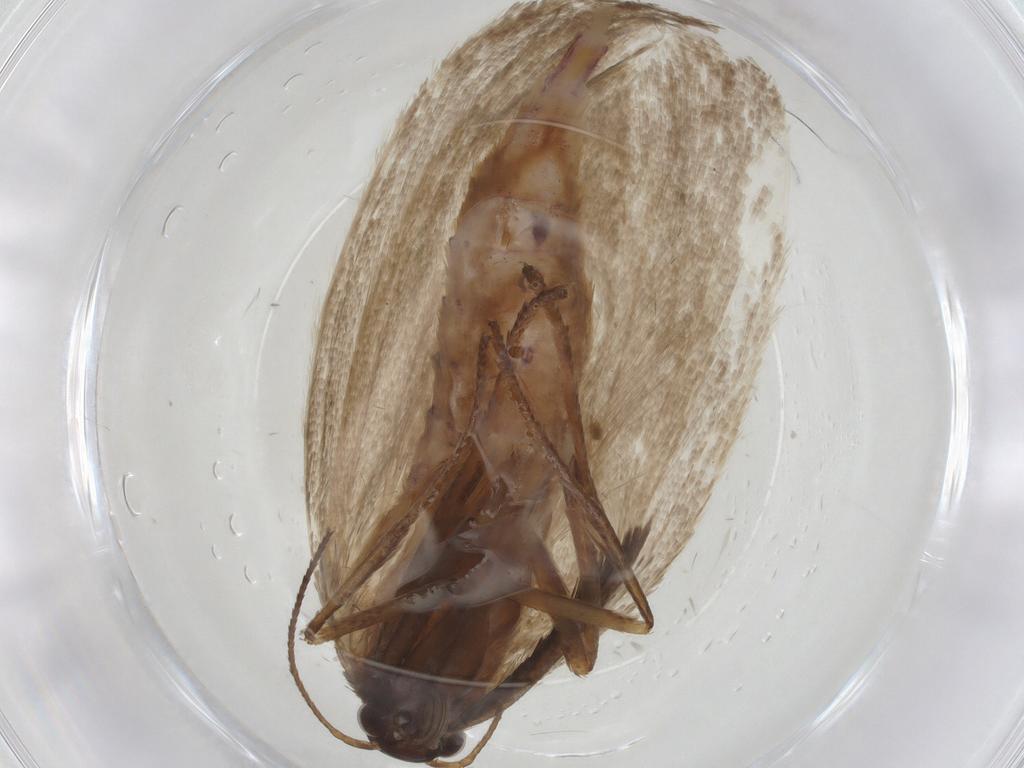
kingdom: Animalia
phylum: Arthropoda
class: Insecta
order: Lepidoptera
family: Oecophoridae
